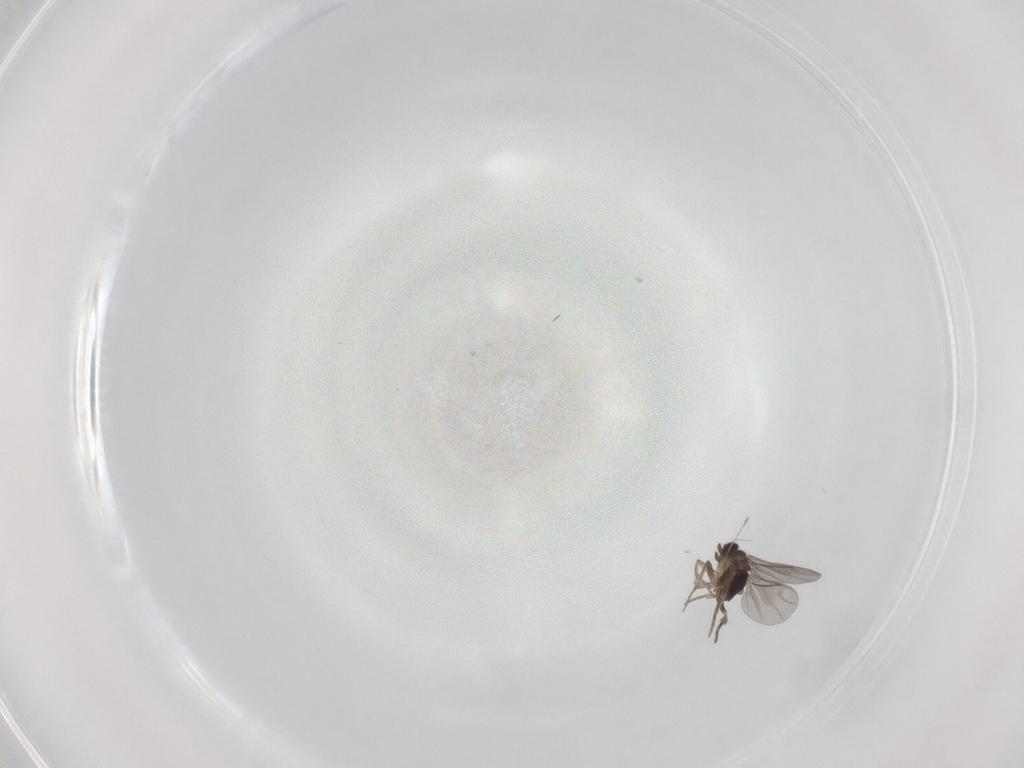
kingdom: Animalia
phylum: Arthropoda
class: Insecta
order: Diptera
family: Cecidomyiidae
